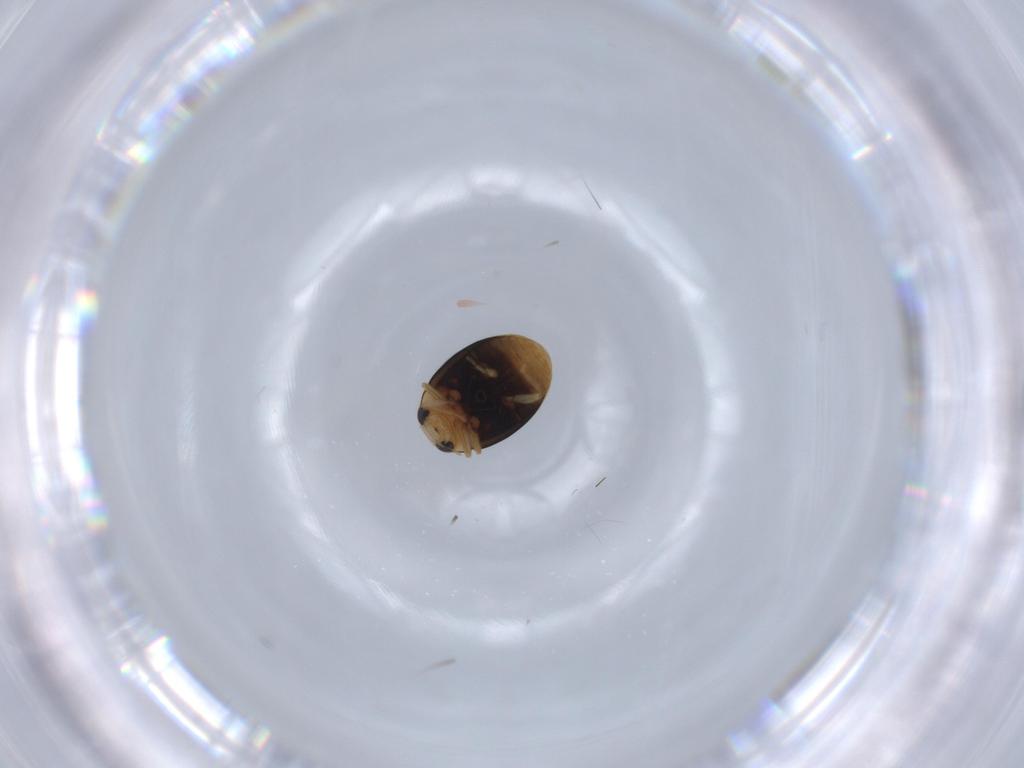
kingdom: Animalia
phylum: Arthropoda
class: Insecta
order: Coleoptera
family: Coccinellidae
